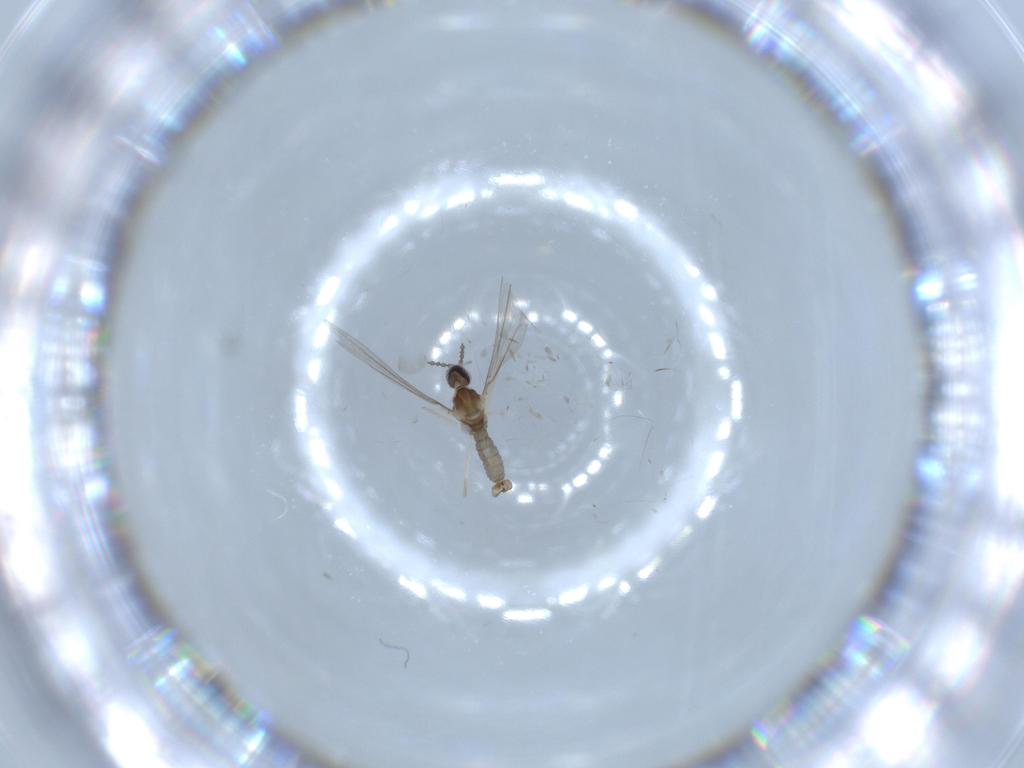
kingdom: Animalia
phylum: Arthropoda
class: Insecta
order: Diptera
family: Cecidomyiidae
